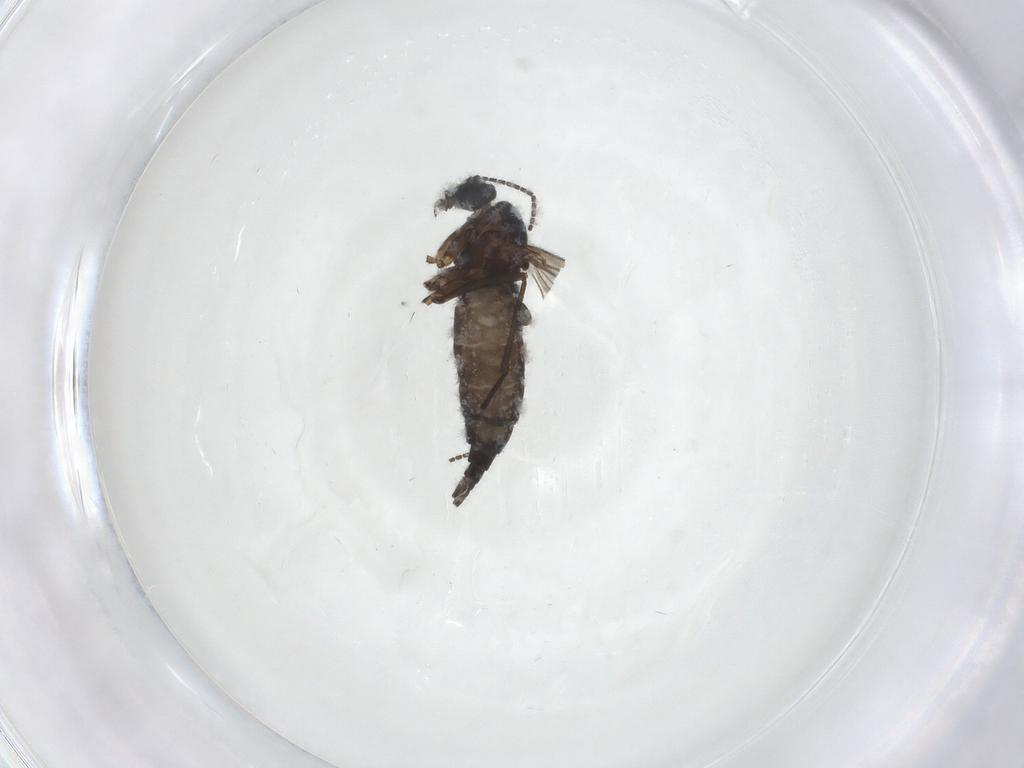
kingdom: Animalia
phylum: Arthropoda
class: Insecta
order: Diptera
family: Sciaridae
